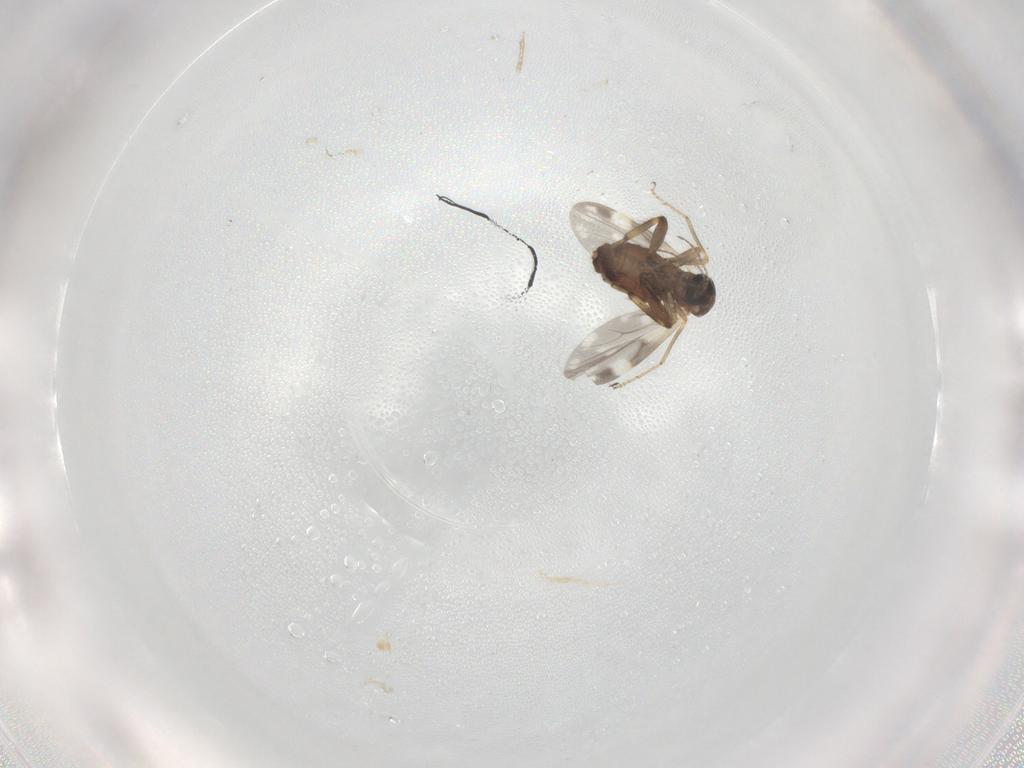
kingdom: Animalia
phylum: Arthropoda
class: Insecta
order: Diptera
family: Ceratopogonidae
